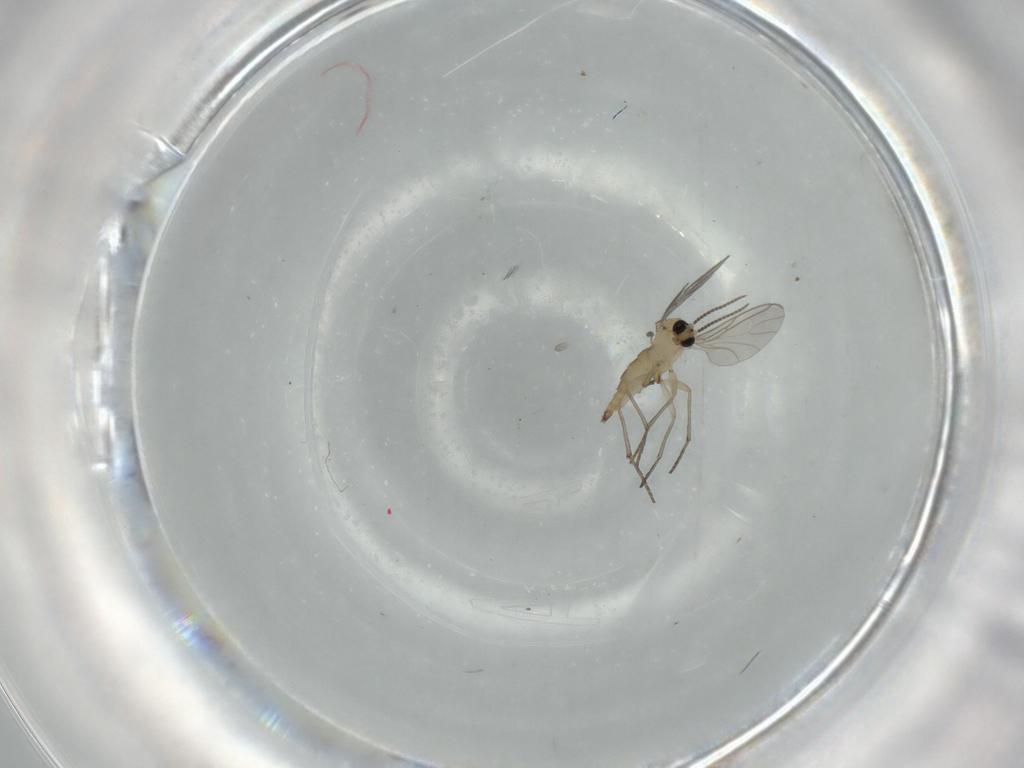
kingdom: Animalia
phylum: Arthropoda
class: Insecta
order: Diptera
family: Sciaridae
